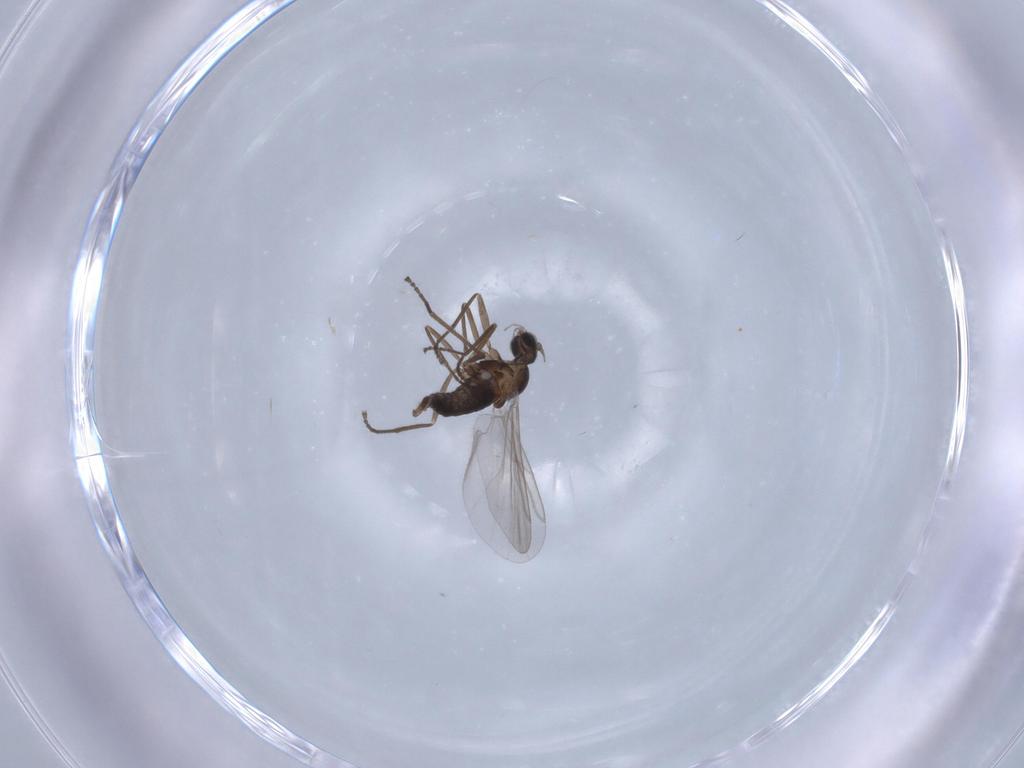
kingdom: Animalia
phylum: Arthropoda
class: Insecta
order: Diptera
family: Cecidomyiidae
